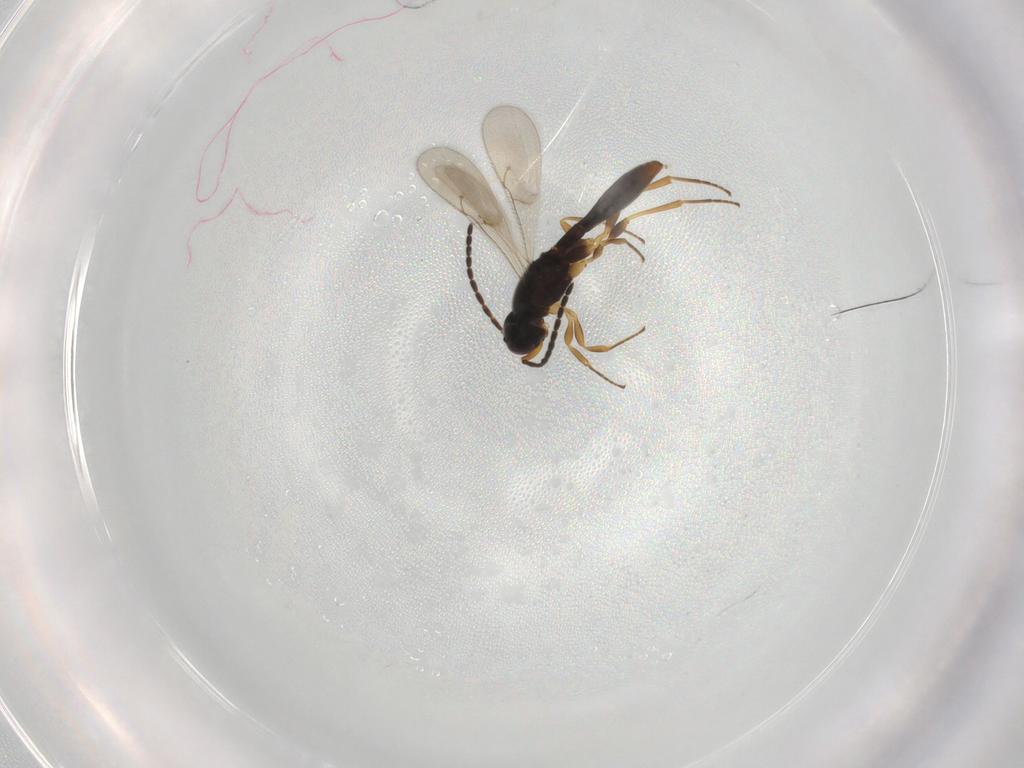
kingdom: Animalia
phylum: Arthropoda
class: Insecta
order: Hymenoptera
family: Scelionidae
